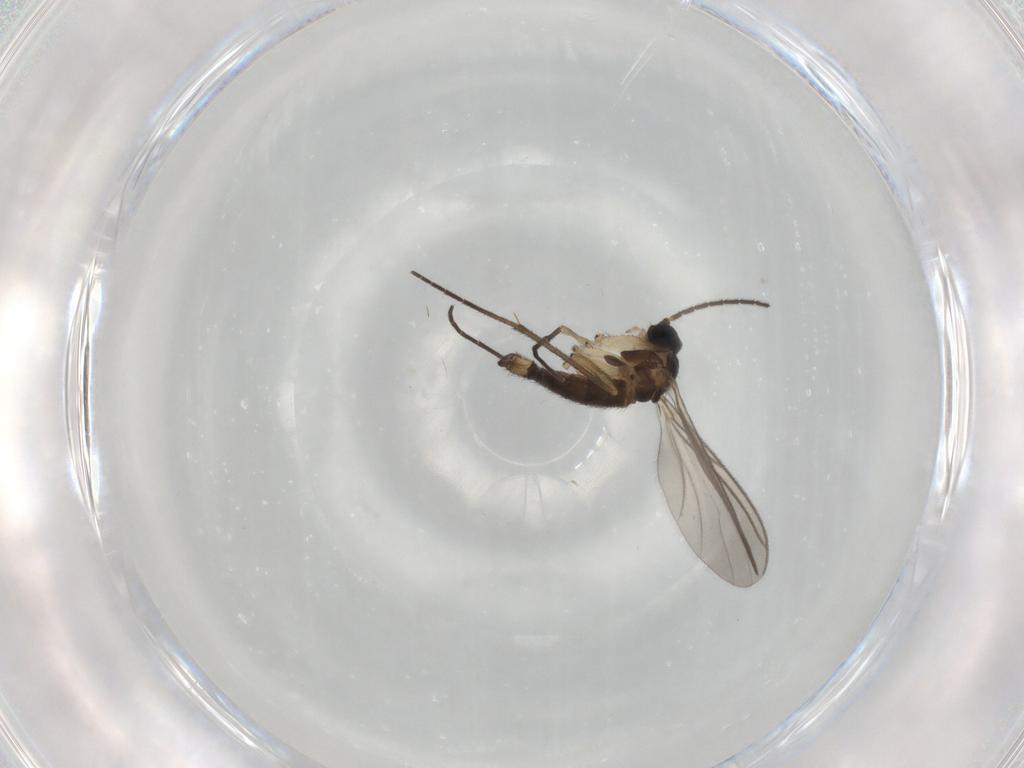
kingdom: Animalia
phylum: Arthropoda
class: Insecta
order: Diptera
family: Sciaridae
